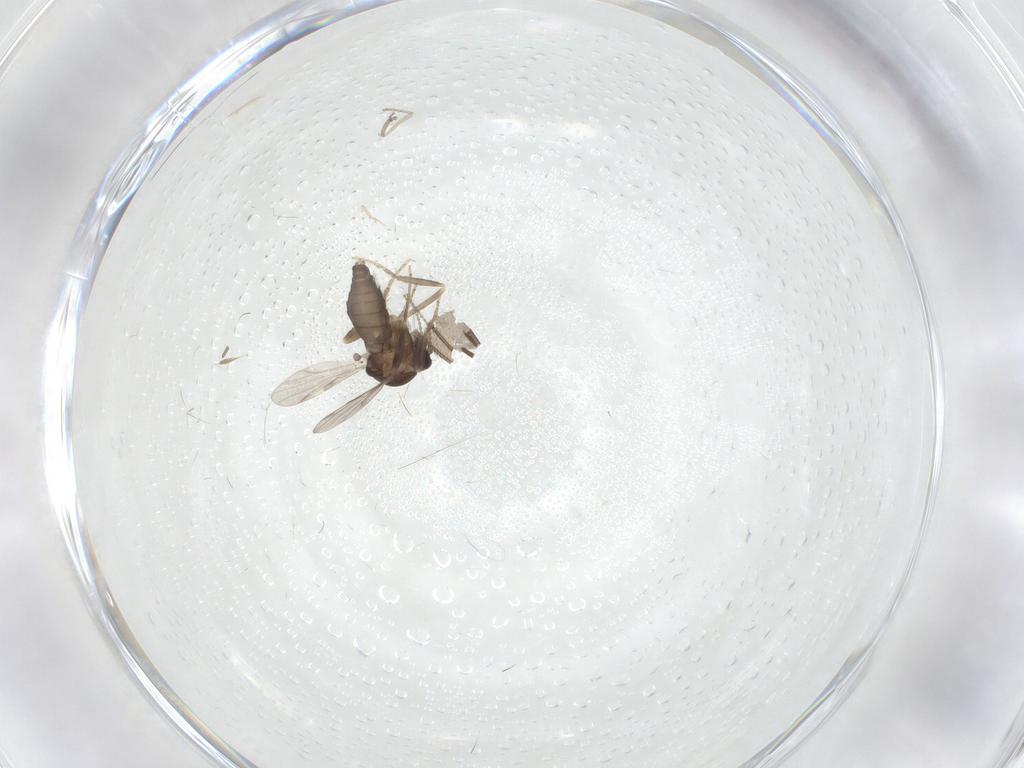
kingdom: Animalia
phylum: Arthropoda
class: Insecta
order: Diptera
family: Ceratopogonidae
